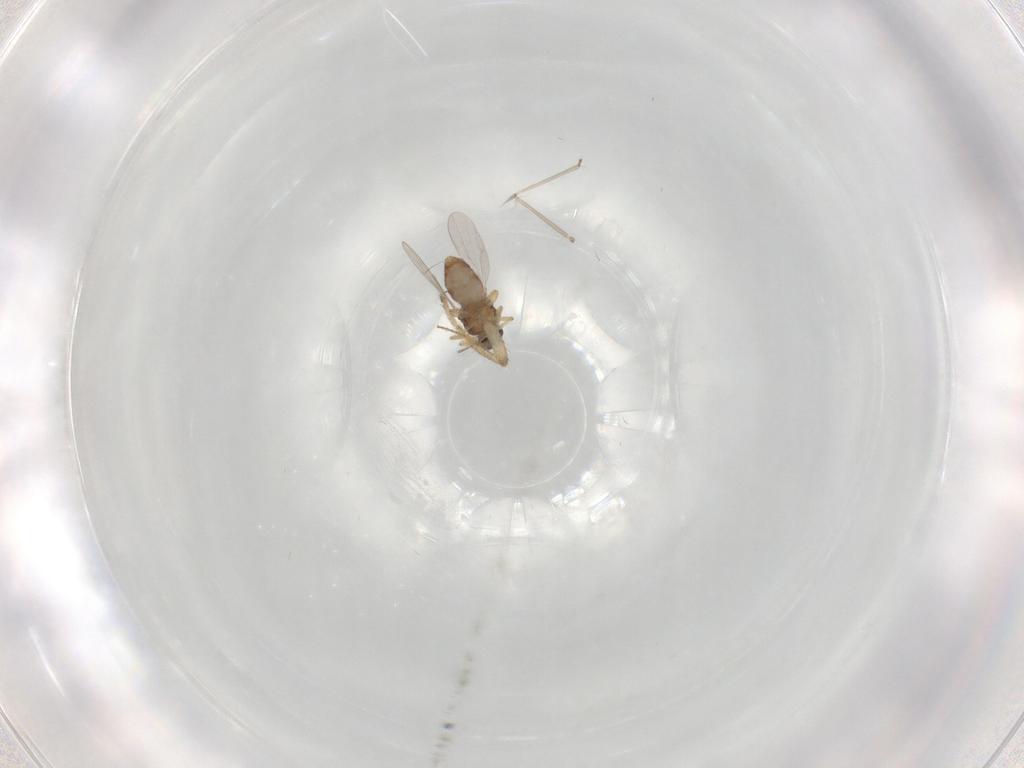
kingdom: Animalia
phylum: Arthropoda
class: Insecta
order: Diptera
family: Ceratopogonidae
